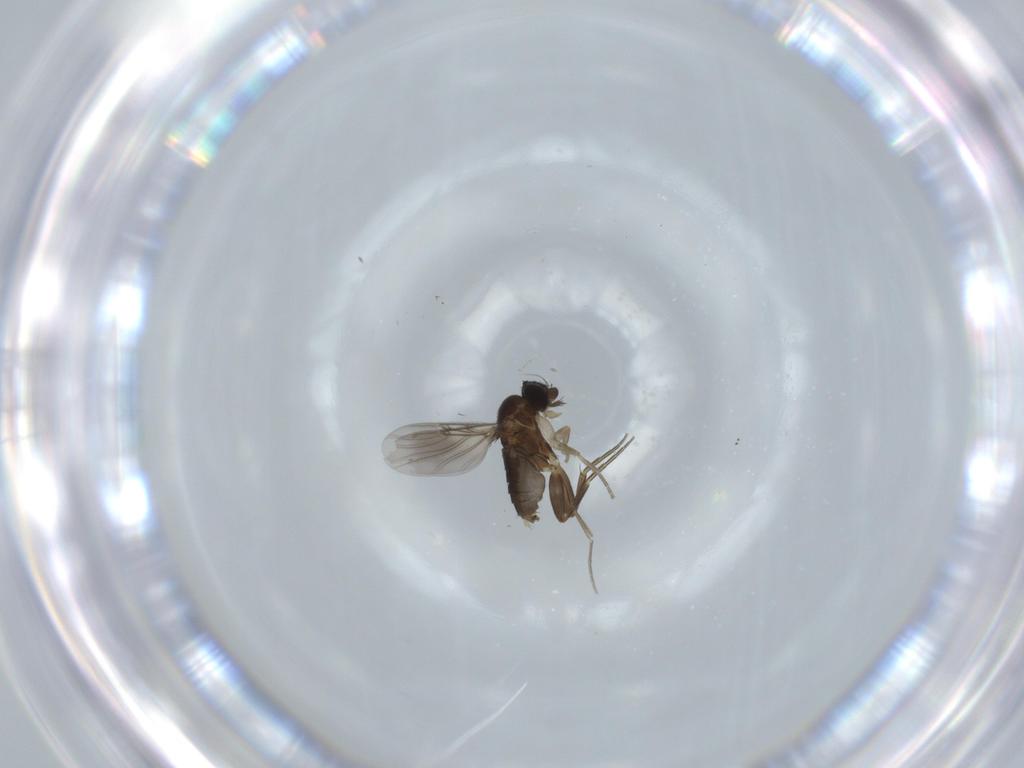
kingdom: Animalia
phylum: Arthropoda
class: Insecta
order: Diptera
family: Phoridae
